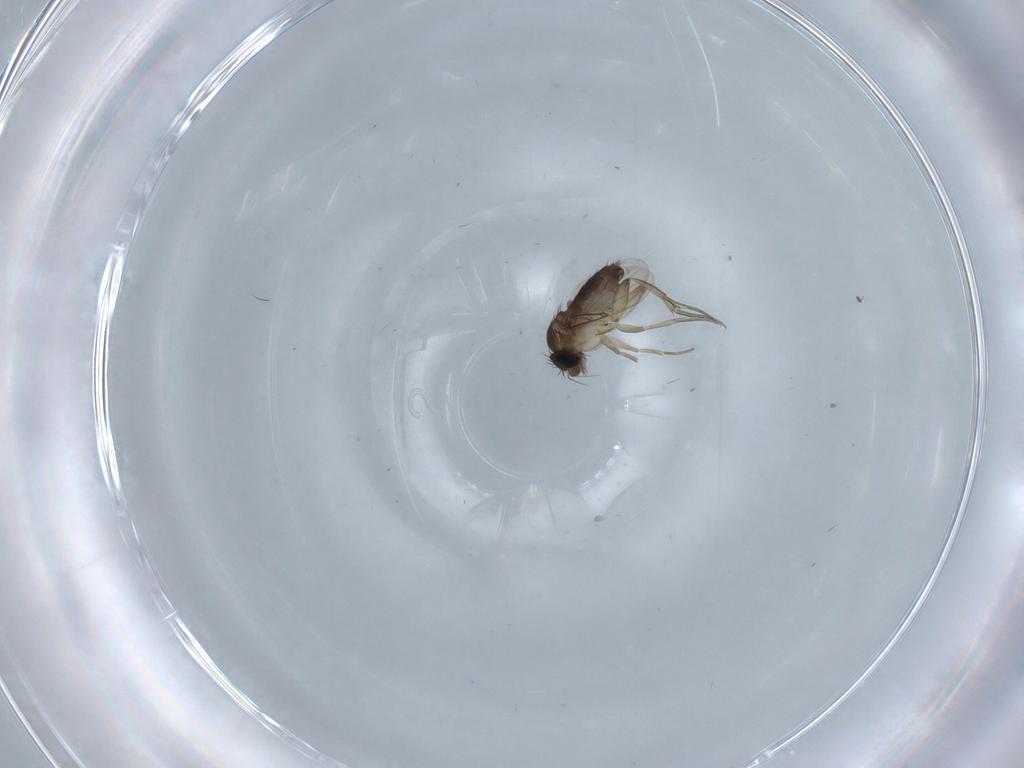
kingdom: Animalia
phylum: Arthropoda
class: Insecta
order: Diptera
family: Phoridae
